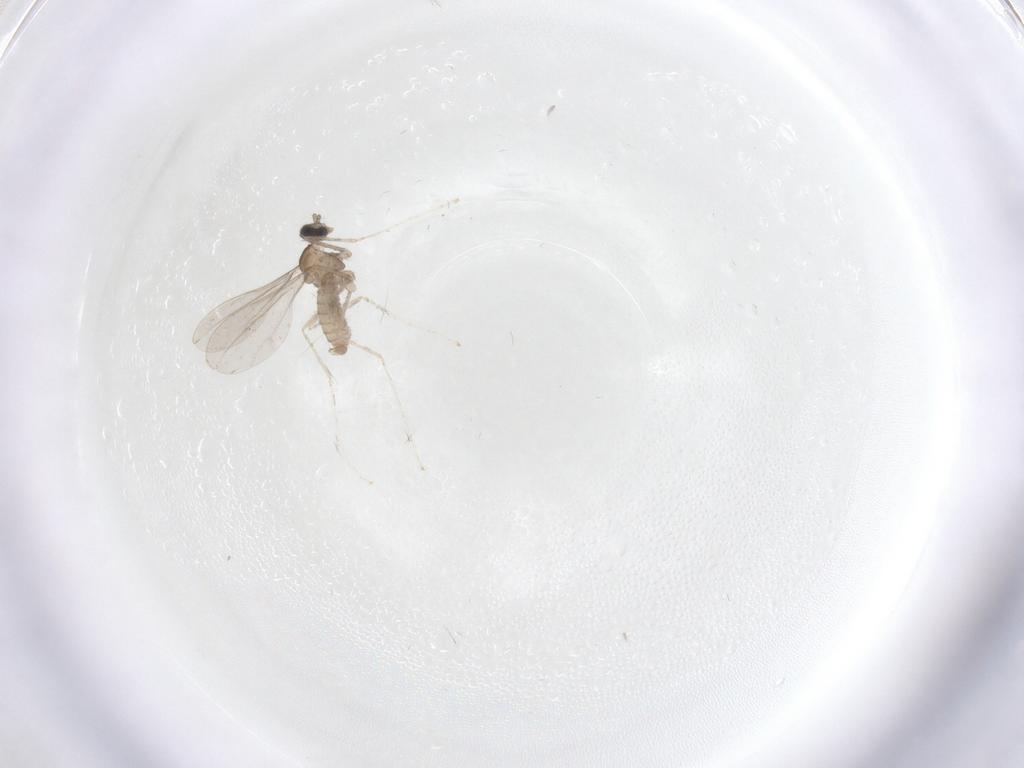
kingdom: Animalia
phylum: Arthropoda
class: Insecta
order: Diptera
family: Cecidomyiidae
